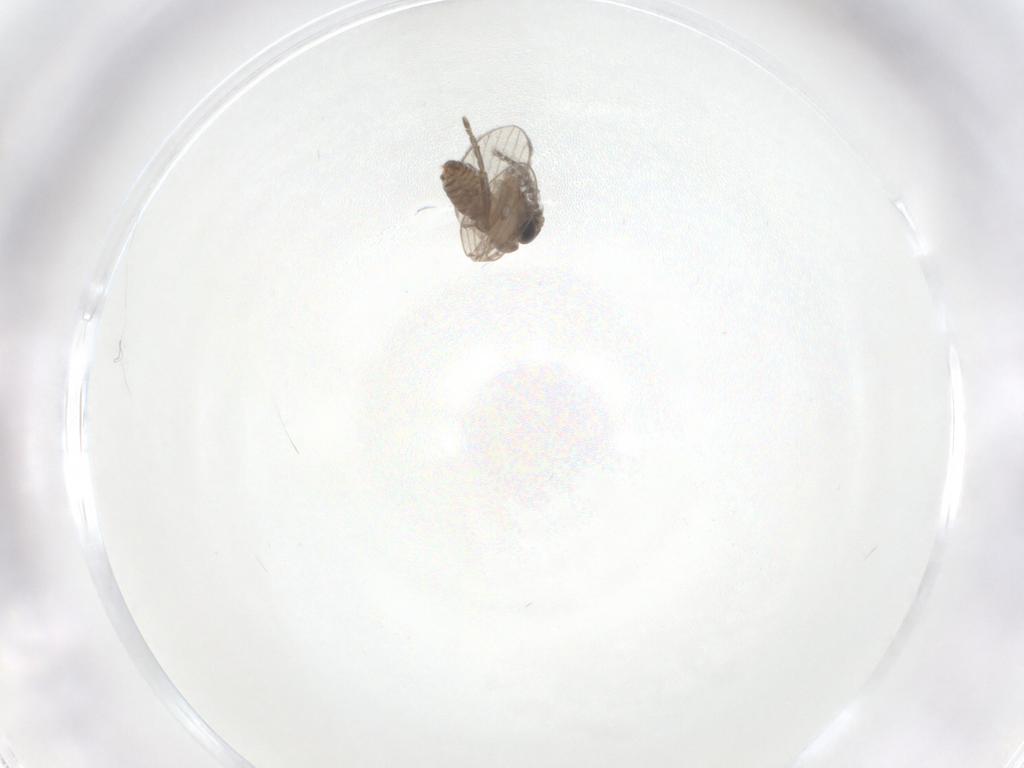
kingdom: Animalia
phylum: Arthropoda
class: Insecta
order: Diptera
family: Psychodidae
